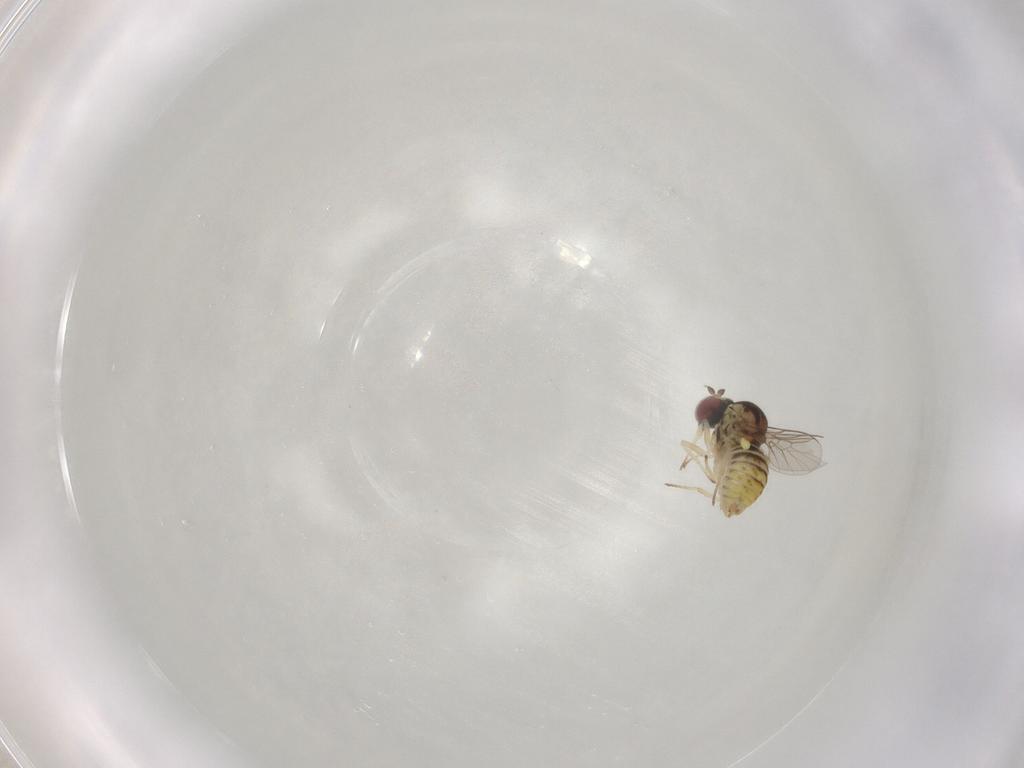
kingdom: Animalia
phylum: Arthropoda
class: Insecta
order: Diptera
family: Bombyliidae
